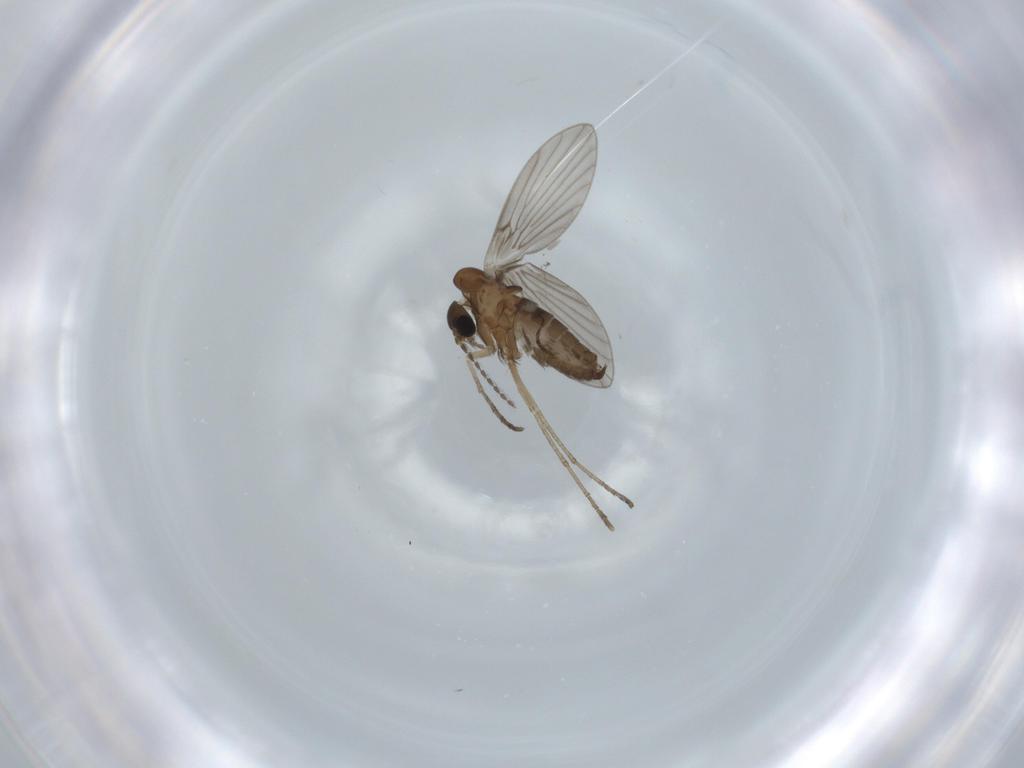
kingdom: Animalia
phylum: Arthropoda
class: Insecta
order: Diptera
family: Psychodidae
